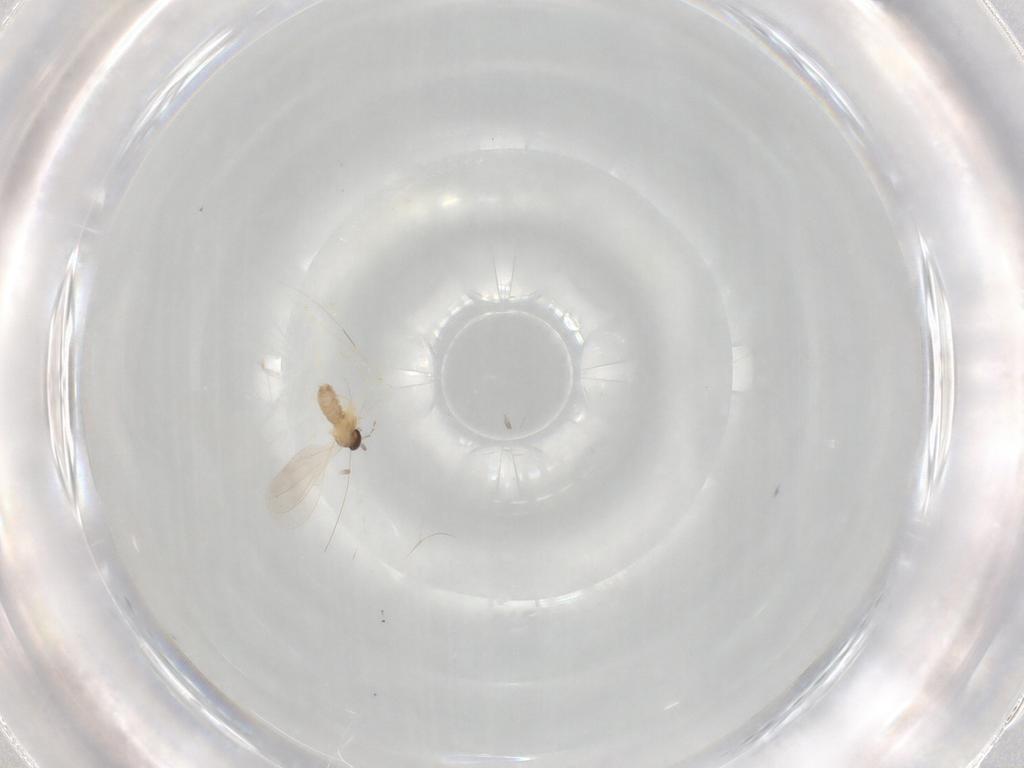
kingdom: Animalia
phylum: Arthropoda
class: Insecta
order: Diptera
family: Cecidomyiidae
